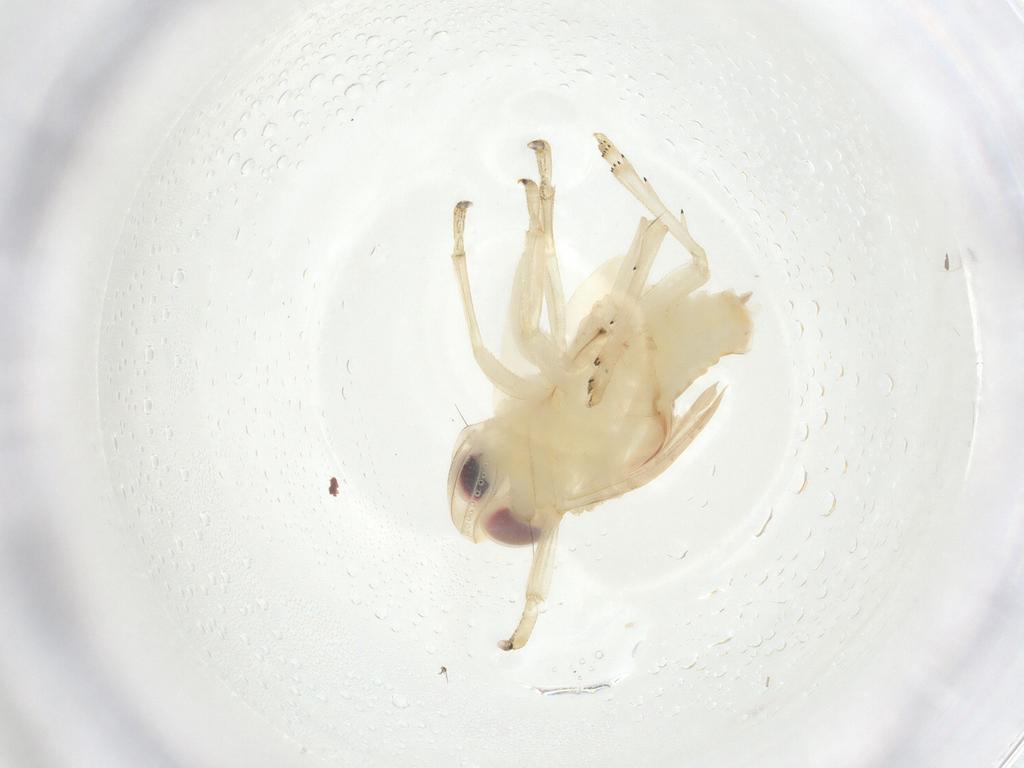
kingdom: Animalia
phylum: Arthropoda
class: Insecta
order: Hemiptera
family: Nogodinidae
